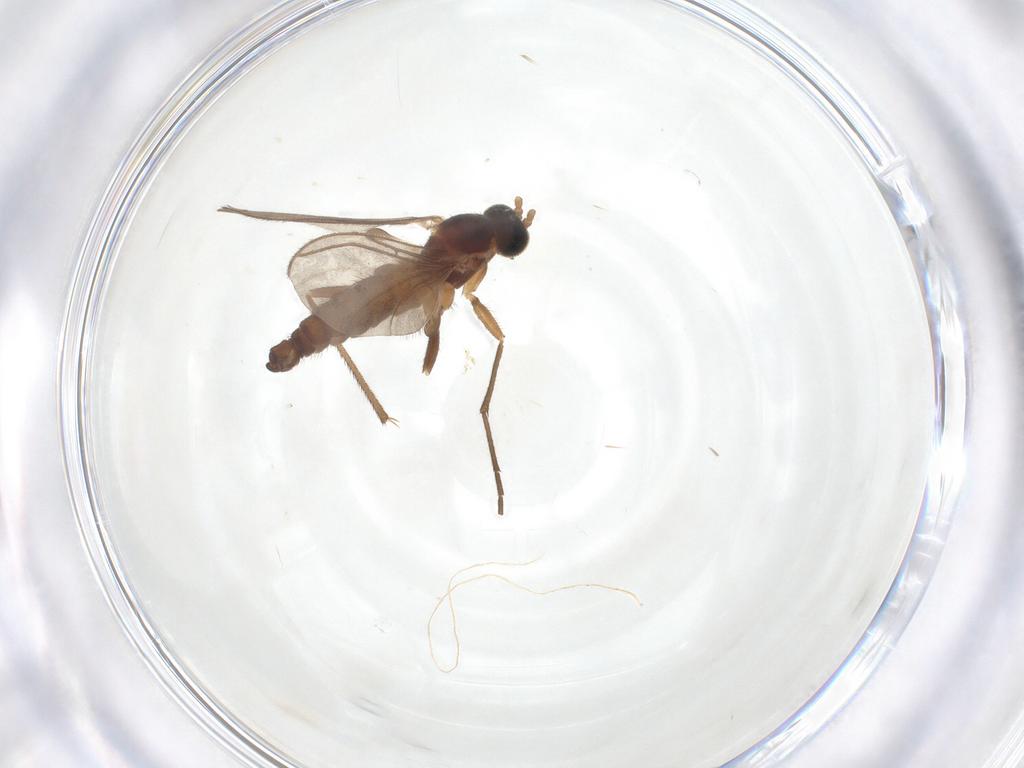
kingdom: Animalia
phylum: Arthropoda
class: Insecta
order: Diptera
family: Sciaridae
